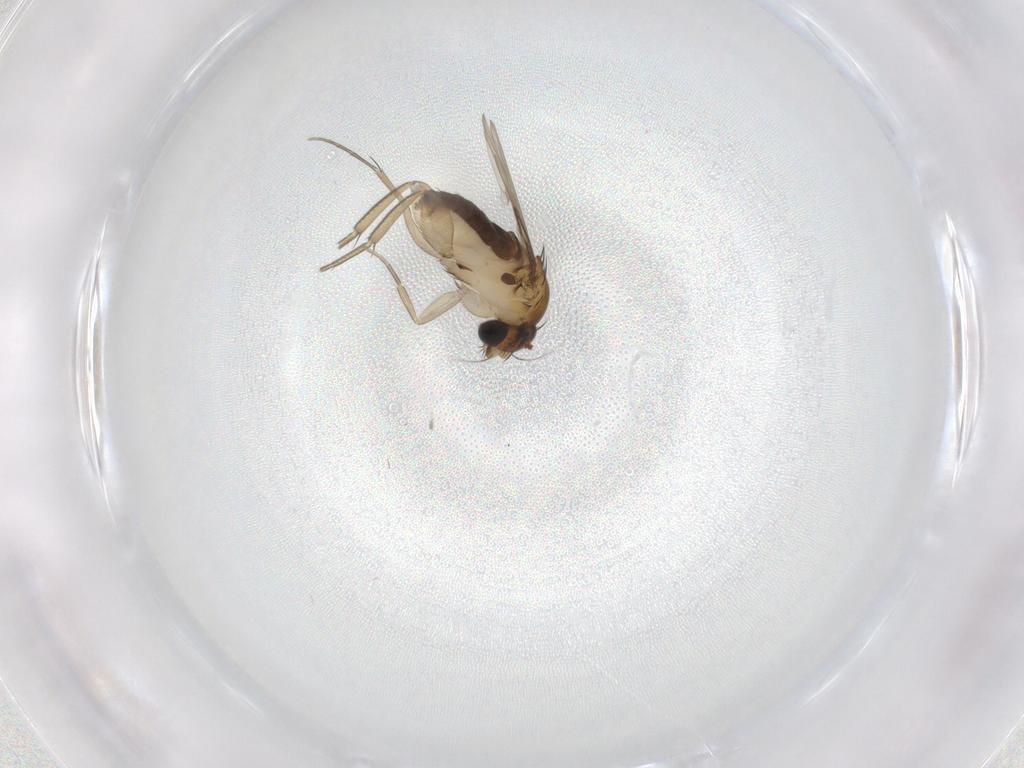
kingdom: Animalia
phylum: Arthropoda
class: Insecta
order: Diptera
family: Phoridae
